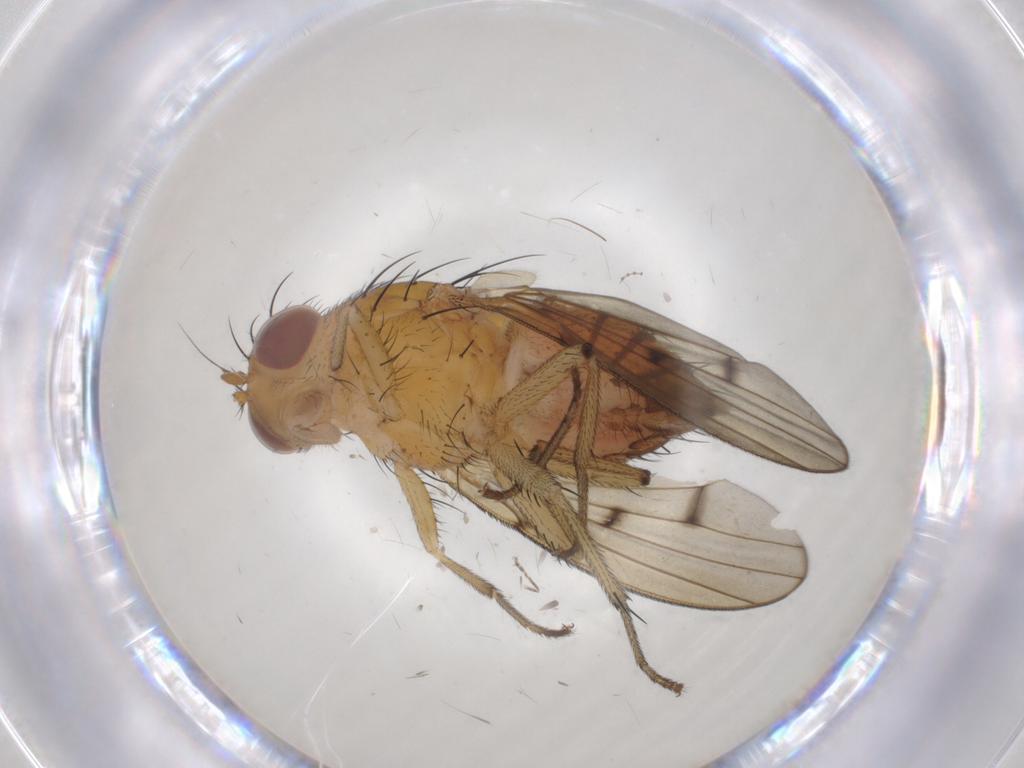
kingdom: Animalia
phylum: Arthropoda
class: Insecta
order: Diptera
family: Lauxaniidae
